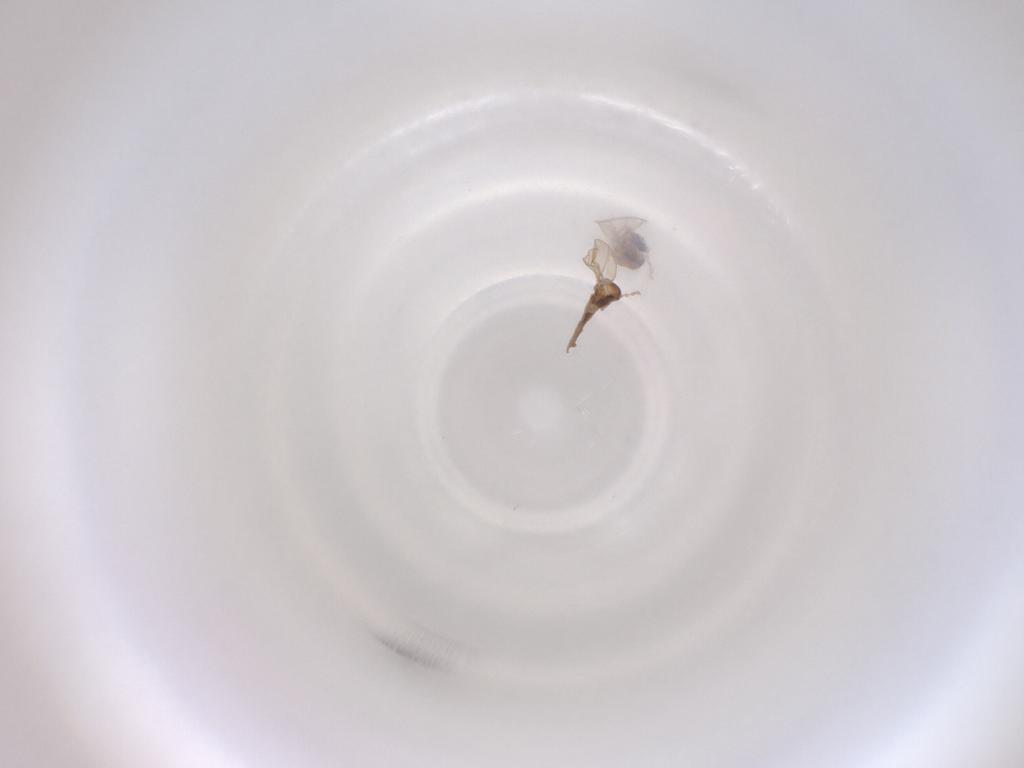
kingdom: Animalia
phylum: Arthropoda
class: Insecta
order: Diptera
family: Cecidomyiidae
